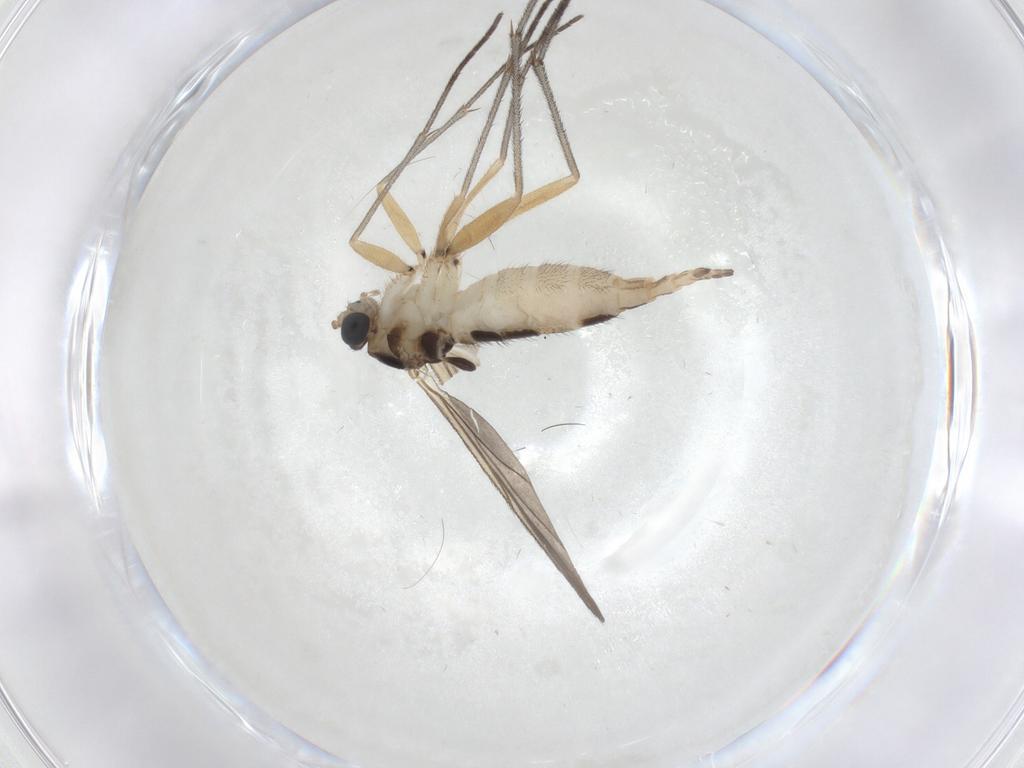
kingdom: Animalia
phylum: Arthropoda
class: Insecta
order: Diptera
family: Sciaridae
